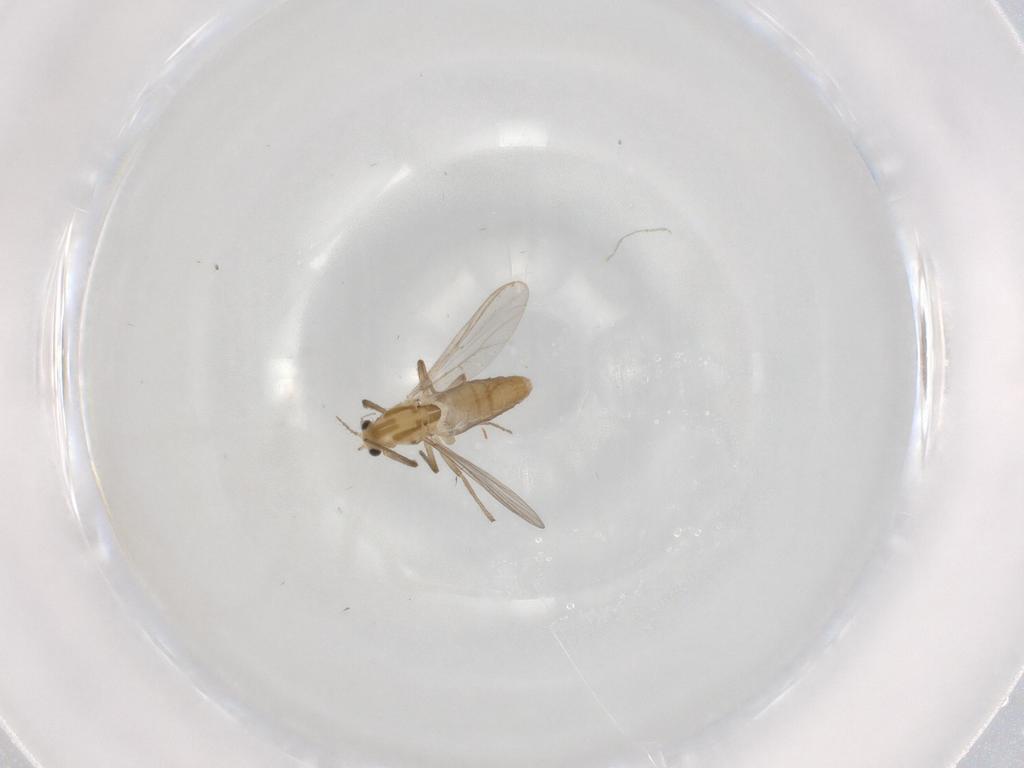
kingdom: Animalia
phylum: Arthropoda
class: Insecta
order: Diptera
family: Chironomidae
